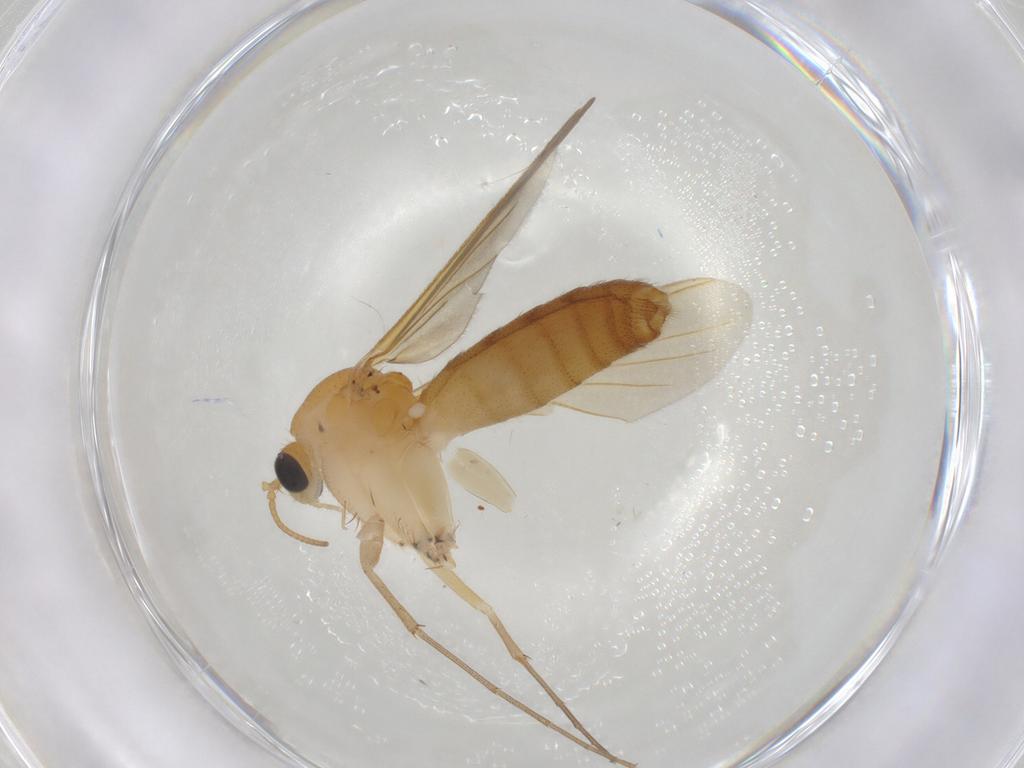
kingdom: Animalia
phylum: Arthropoda
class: Insecta
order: Diptera
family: Mycetophilidae
